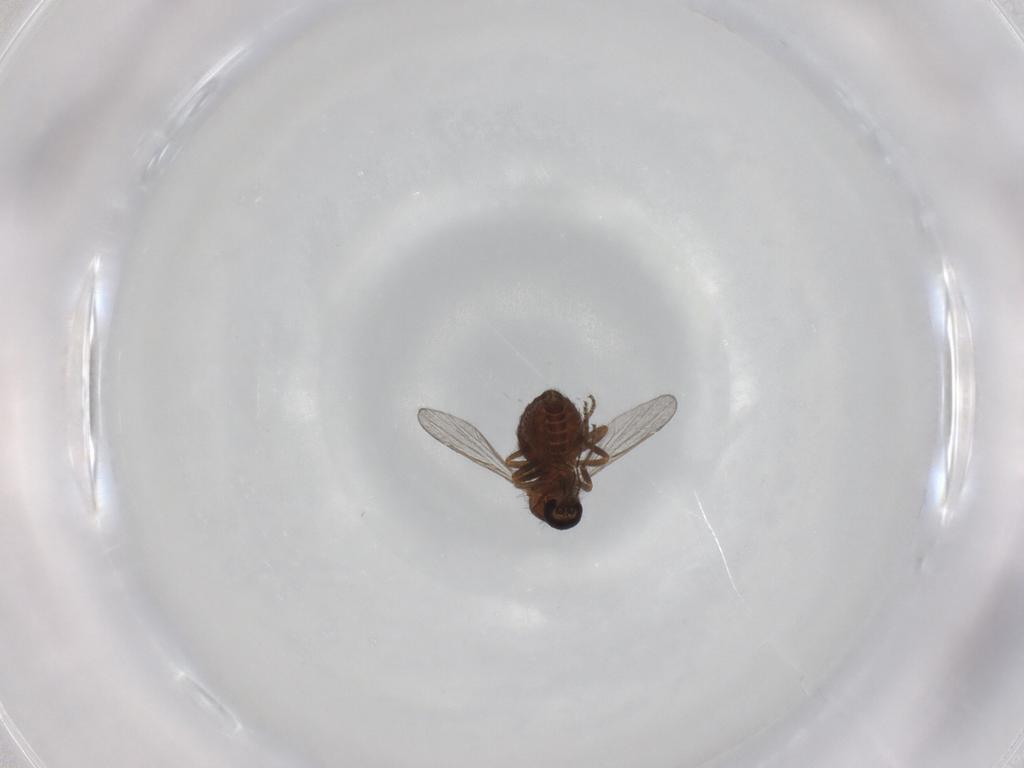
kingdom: Animalia
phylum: Arthropoda
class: Insecta
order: Diptera
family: Ceratopogonidae
